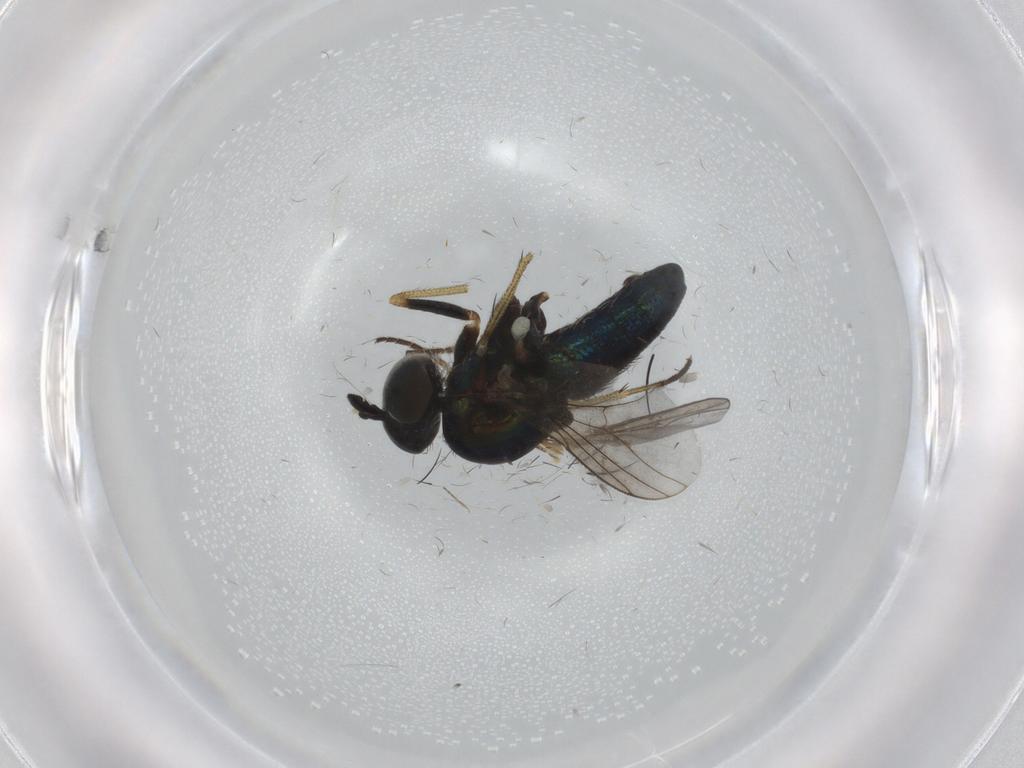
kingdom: Animalia
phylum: Arthropoda
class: Insecta
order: Diptera
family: Dolichopodidae
